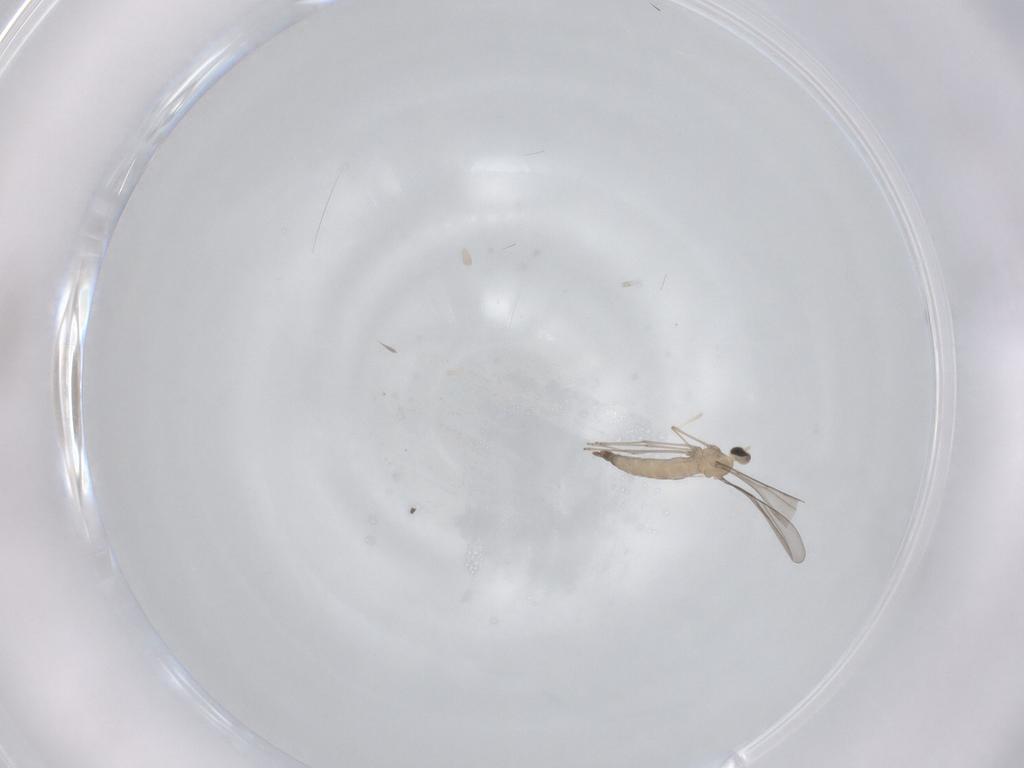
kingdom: Animalia
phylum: Arthropoda
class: Insecta
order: Diptera
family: Cecidomyiidae
